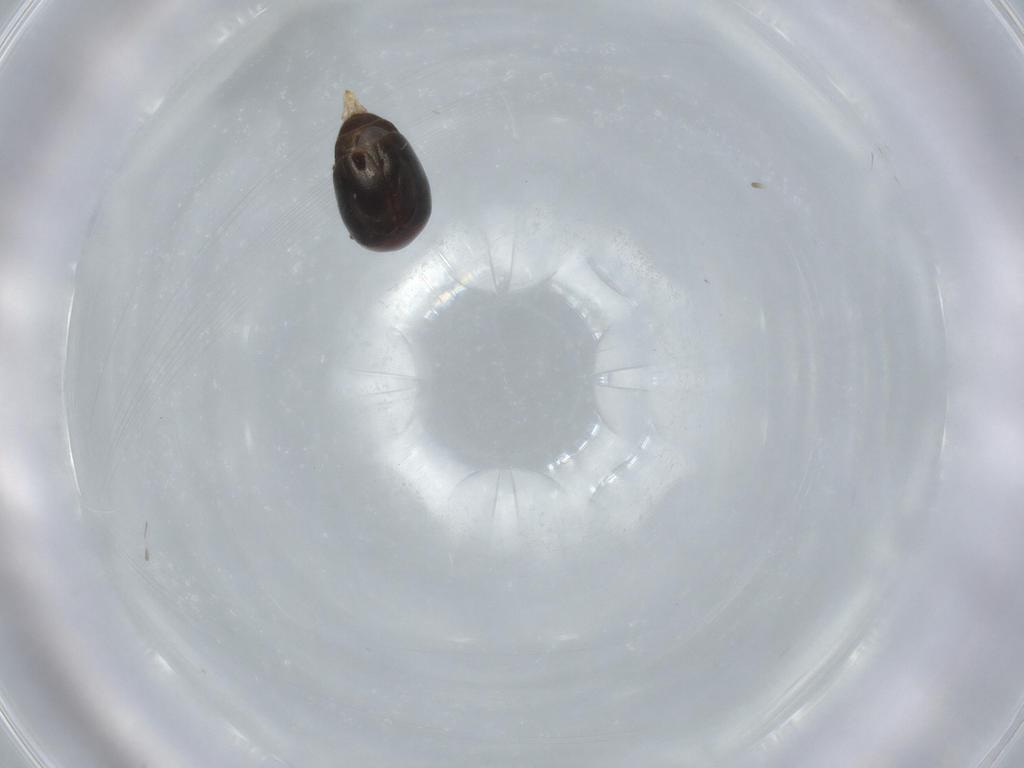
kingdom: Animalia
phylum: Arthropoda
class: Insecta
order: Coleoptera
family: Corylophidae
